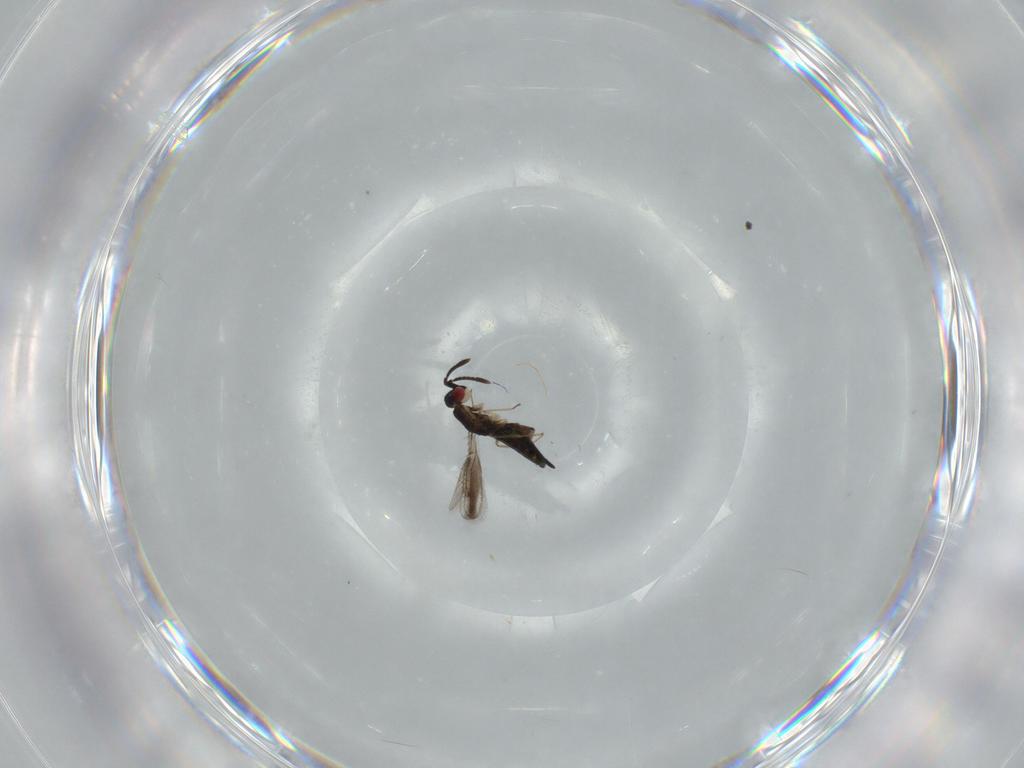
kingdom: Animalia
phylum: Arthropoda
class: Insecta
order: Hymenoptera
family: Pteromalidae
